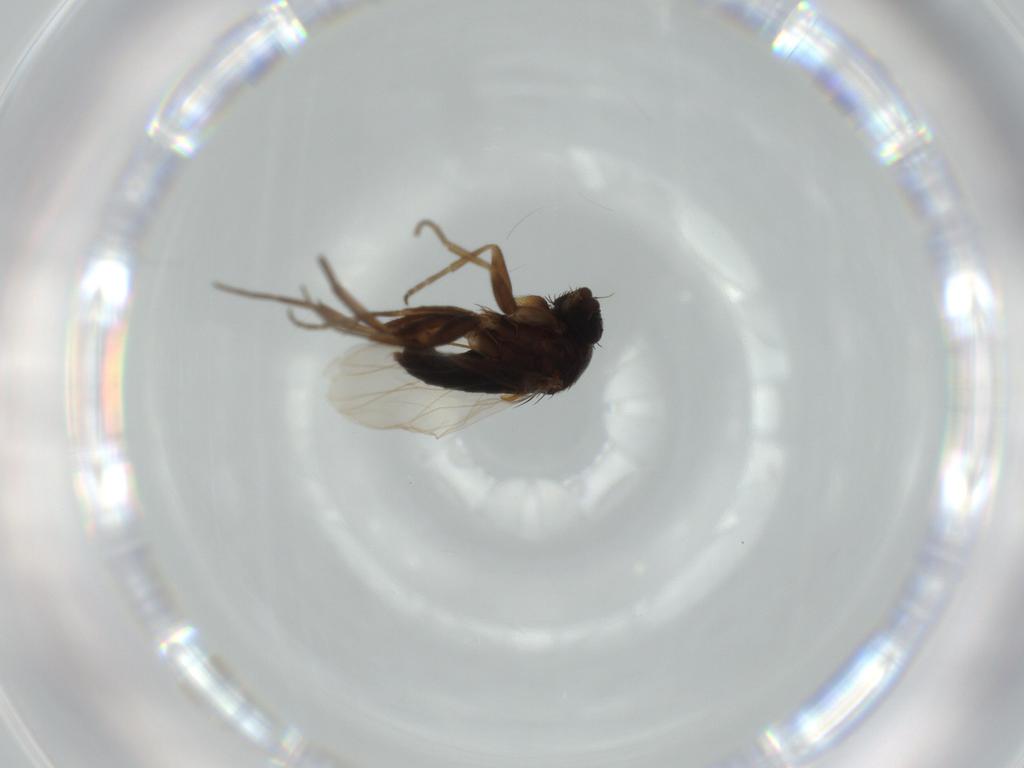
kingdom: Animalia
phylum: Arthropoda
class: Insecta
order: Diptera
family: Phoridae
